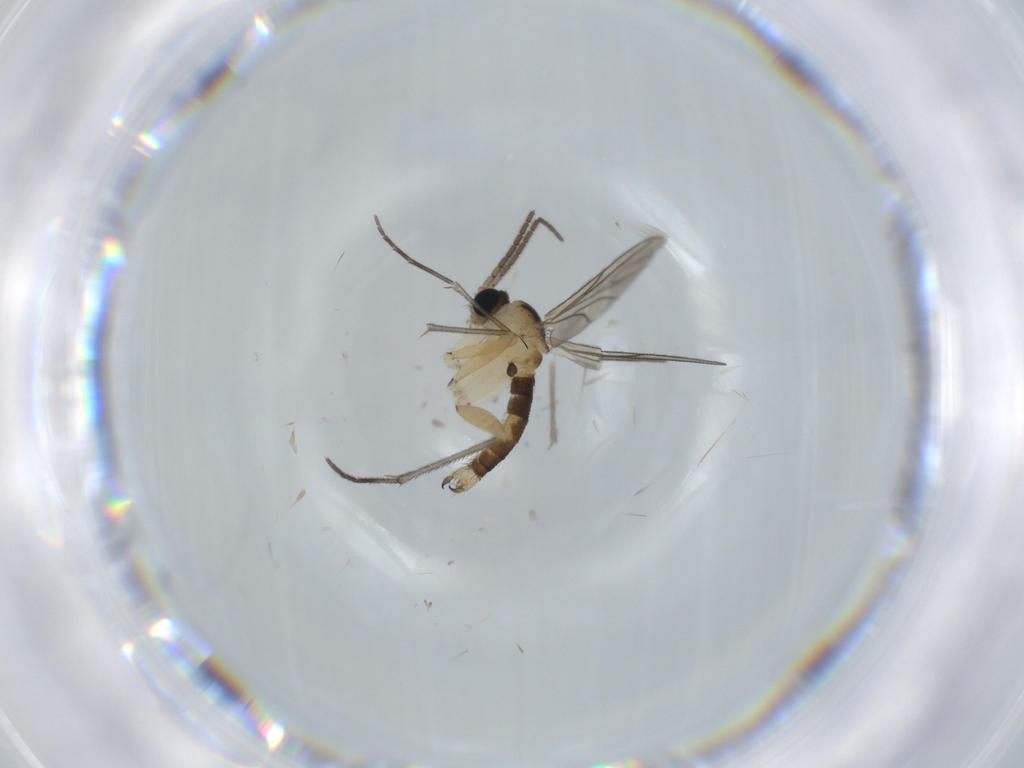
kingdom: Animalia
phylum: Arthropoda
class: Insecta
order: Diptera
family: Sciaridae
